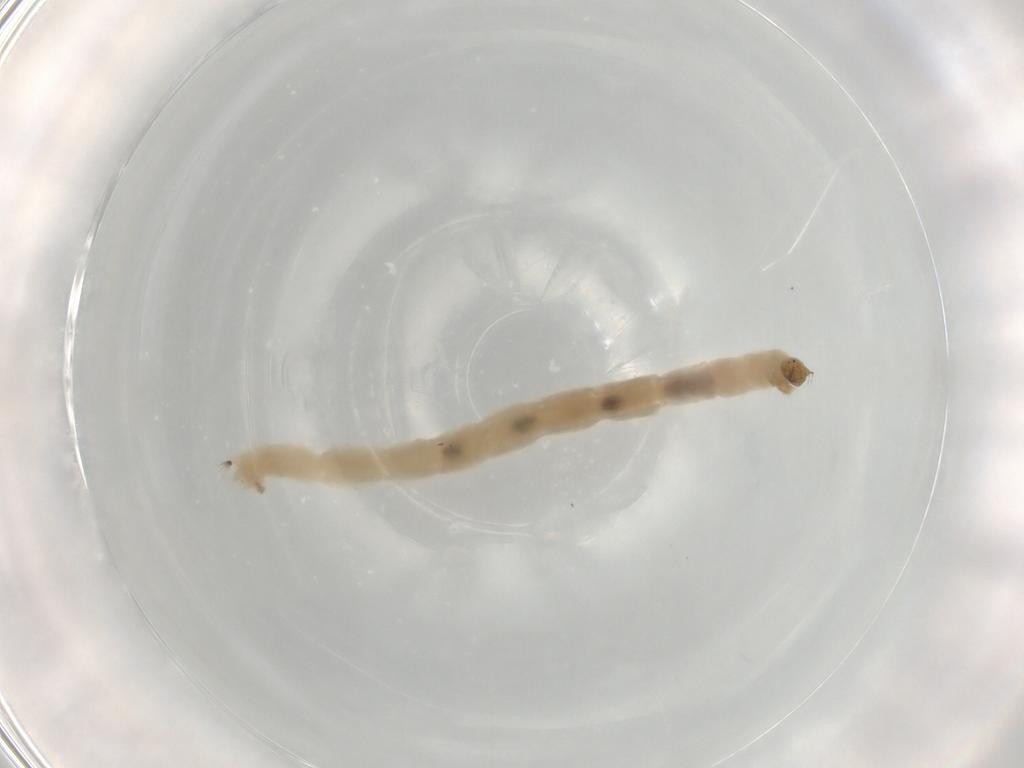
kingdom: Animalia
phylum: Arthropoda
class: Insecta
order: Diptera
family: Chironomidae
